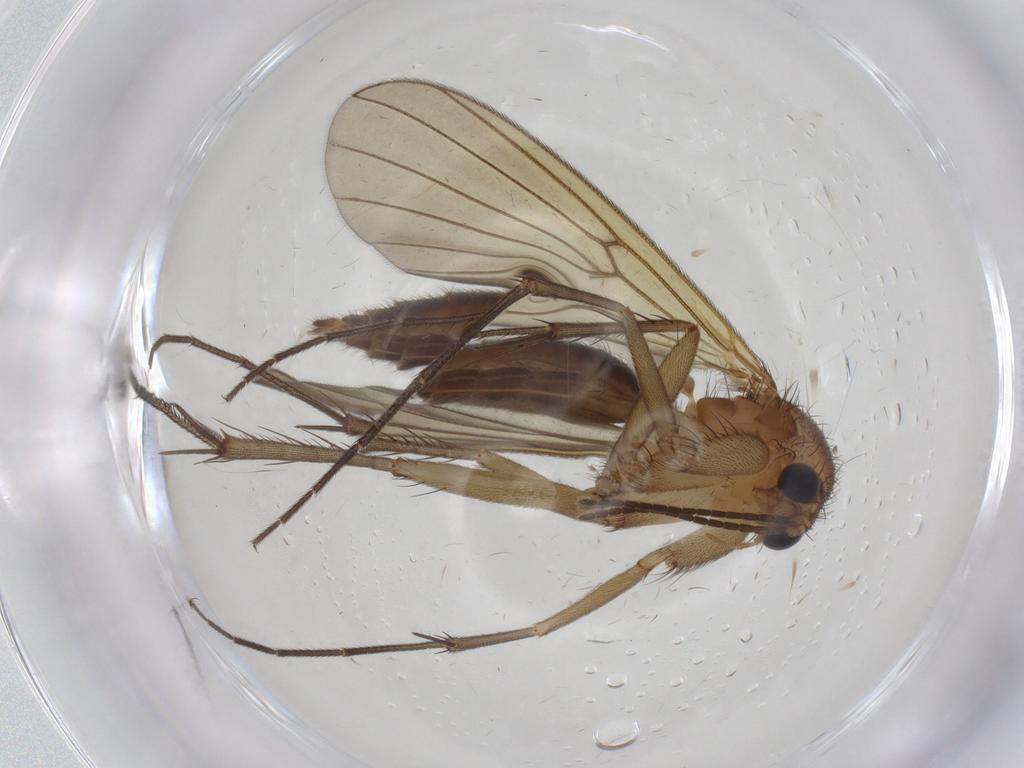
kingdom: Animalia
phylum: Arthropoda
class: Insecta
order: Diptera
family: Mycetophilidae
